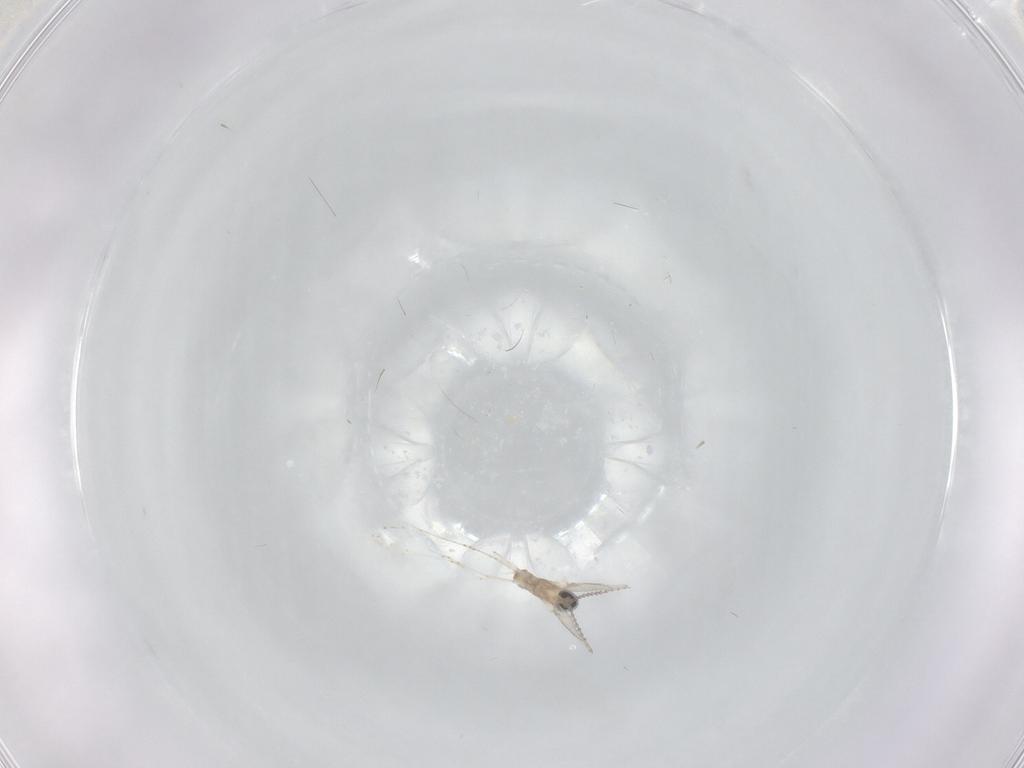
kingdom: Animalia
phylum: Arthropoda
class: Insecta
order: Diptera
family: Cecidomyiidae
